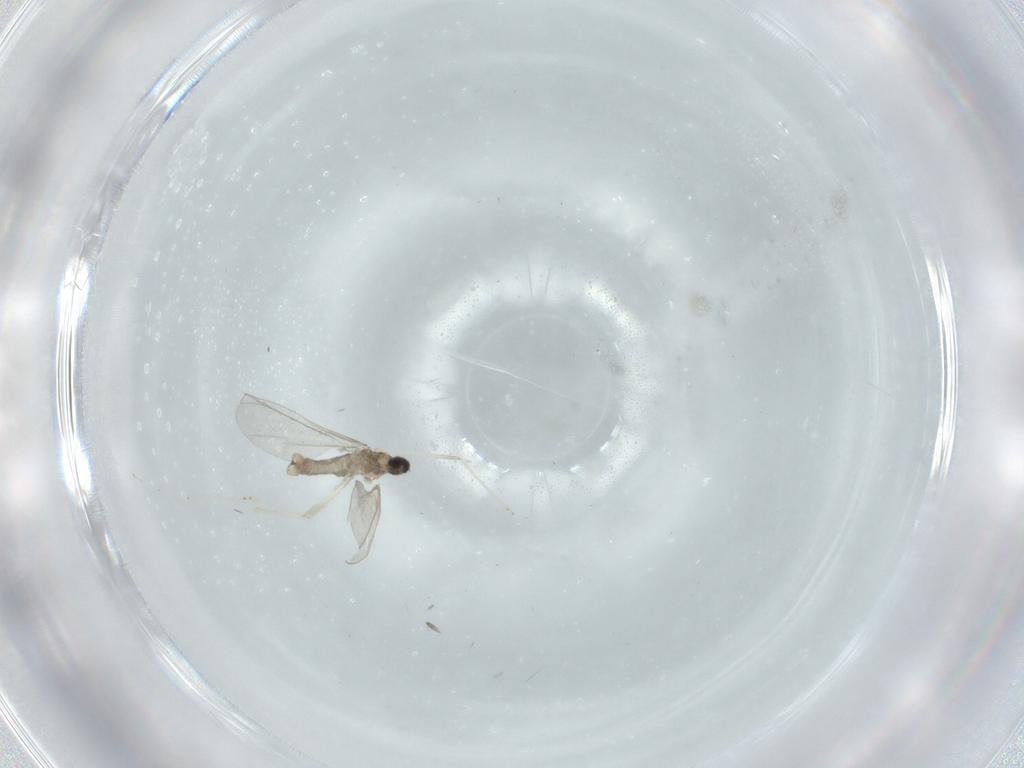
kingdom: Animalia
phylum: Arthropoda
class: Insecta
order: Diptera
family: Cecidomyiidae
